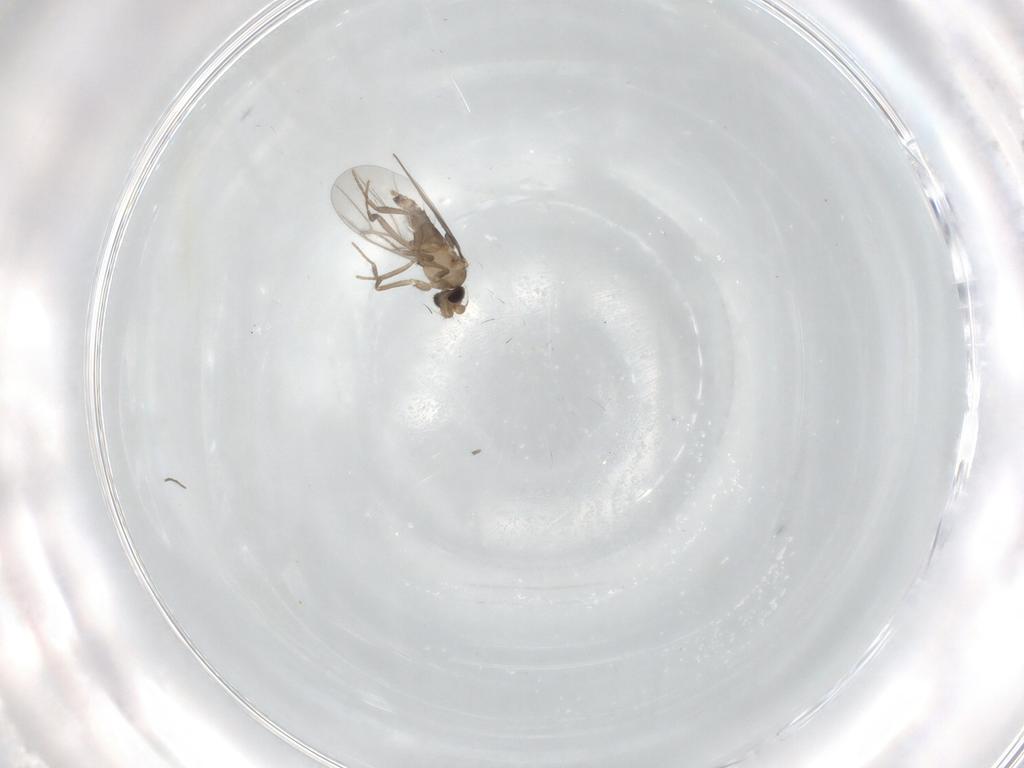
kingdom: Animalia
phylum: Arthropoda
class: Insecta
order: Diptera
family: Chironomidae
